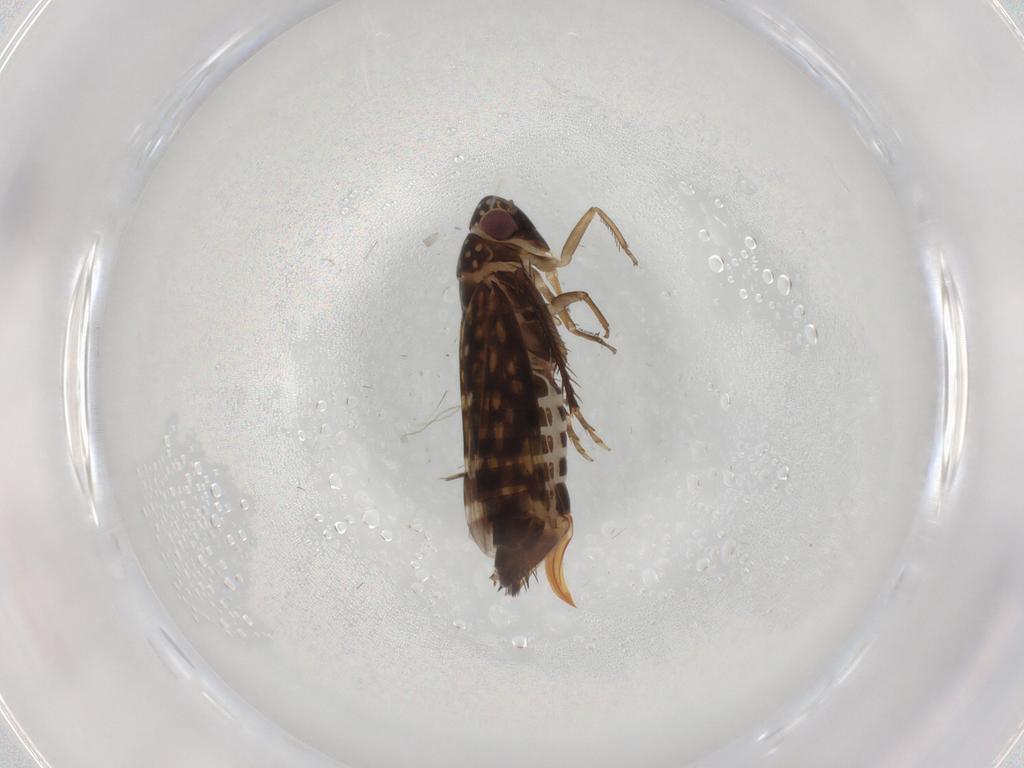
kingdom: Animalia
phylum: Arthropoda
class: Insecta
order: Hemiptera
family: Cicadellidae
